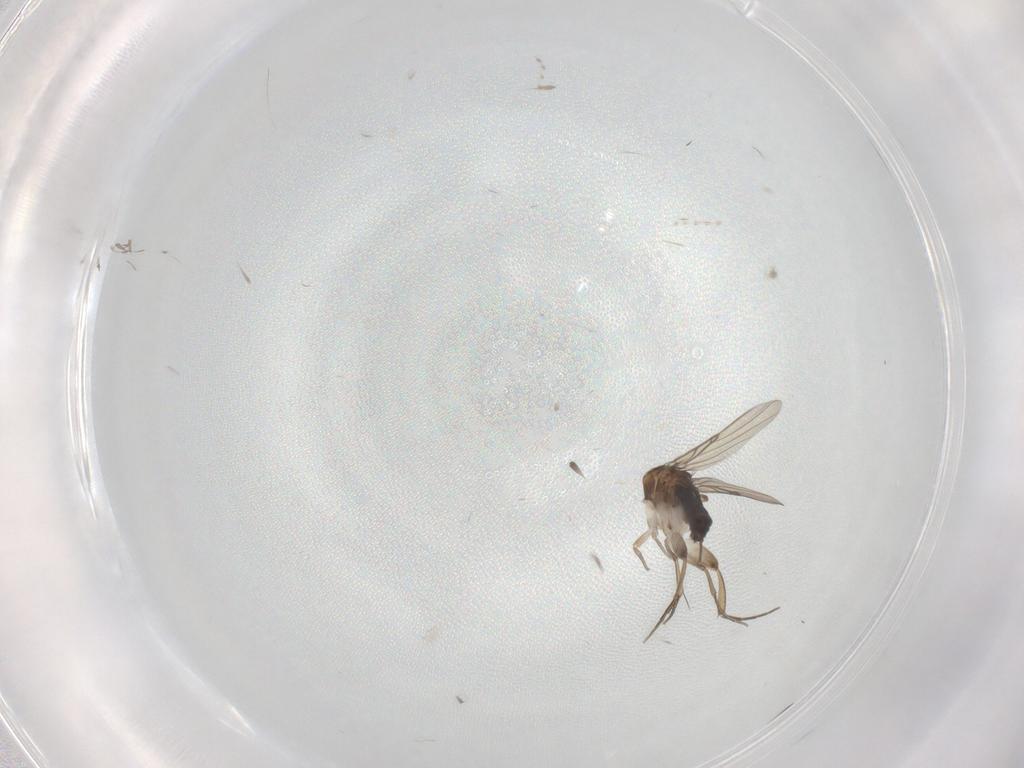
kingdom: Animalia
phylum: Arthropoda
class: Insecta
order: Diptera
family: Phoridae
